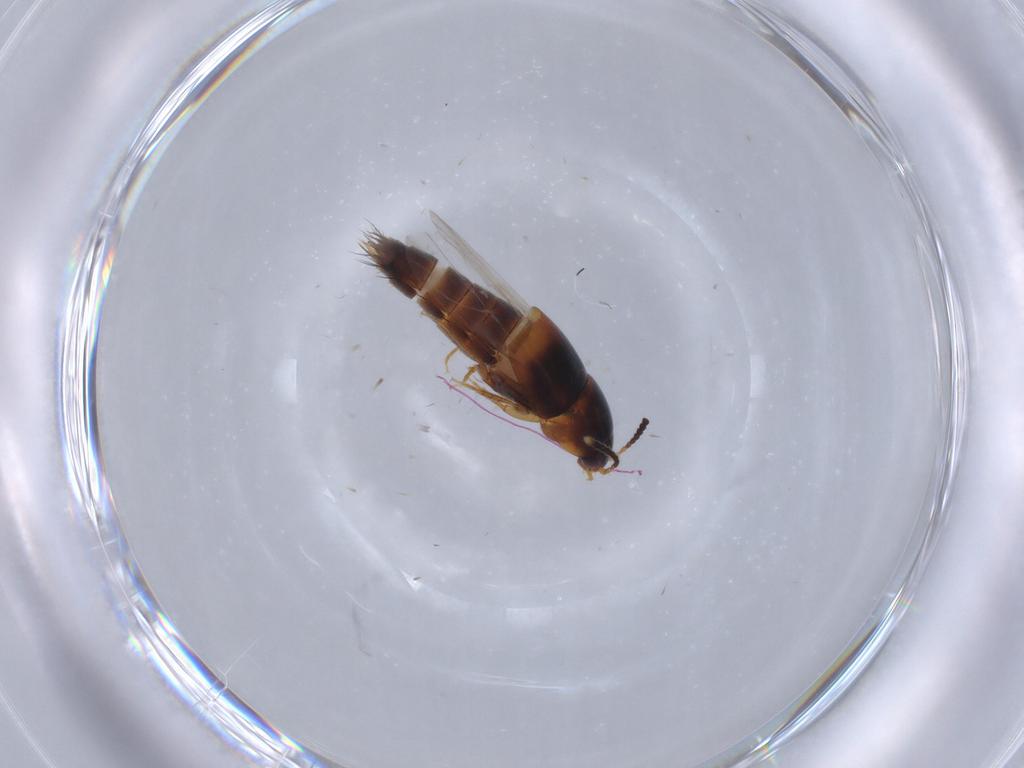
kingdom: Animalia
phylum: Arthropoda
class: Insecta
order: Coleoptera
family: Staphylinidae
